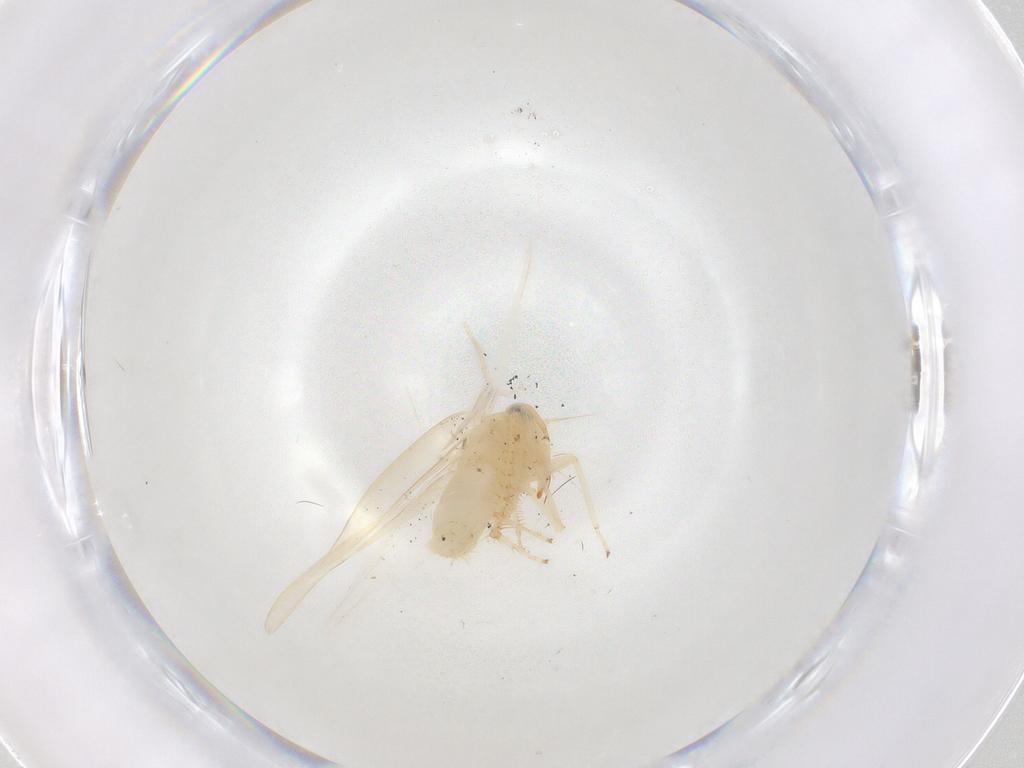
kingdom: Animalia
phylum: Arthropoda
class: Insecta
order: Hemiptera
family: Cicadellidae
